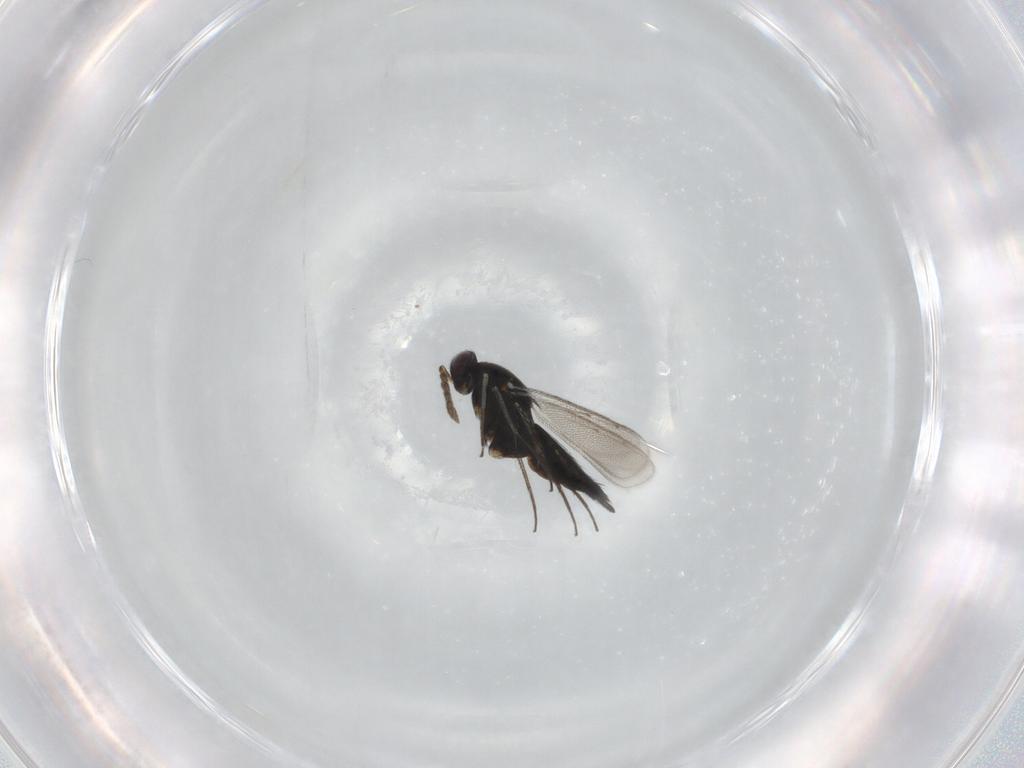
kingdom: Animalia
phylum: Arthropoda
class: Insecta
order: Hymenoptera
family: Eulophidae
